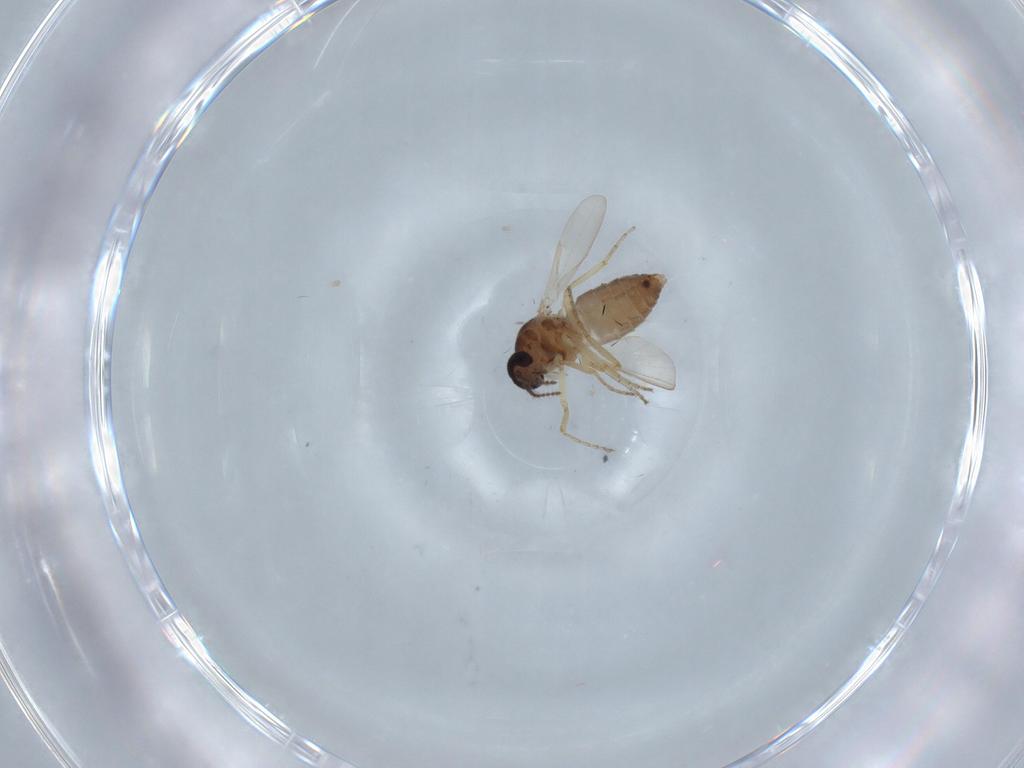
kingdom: Animalia
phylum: Arthropoda
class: Insecta
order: Diptera
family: Ceratopogonidae
